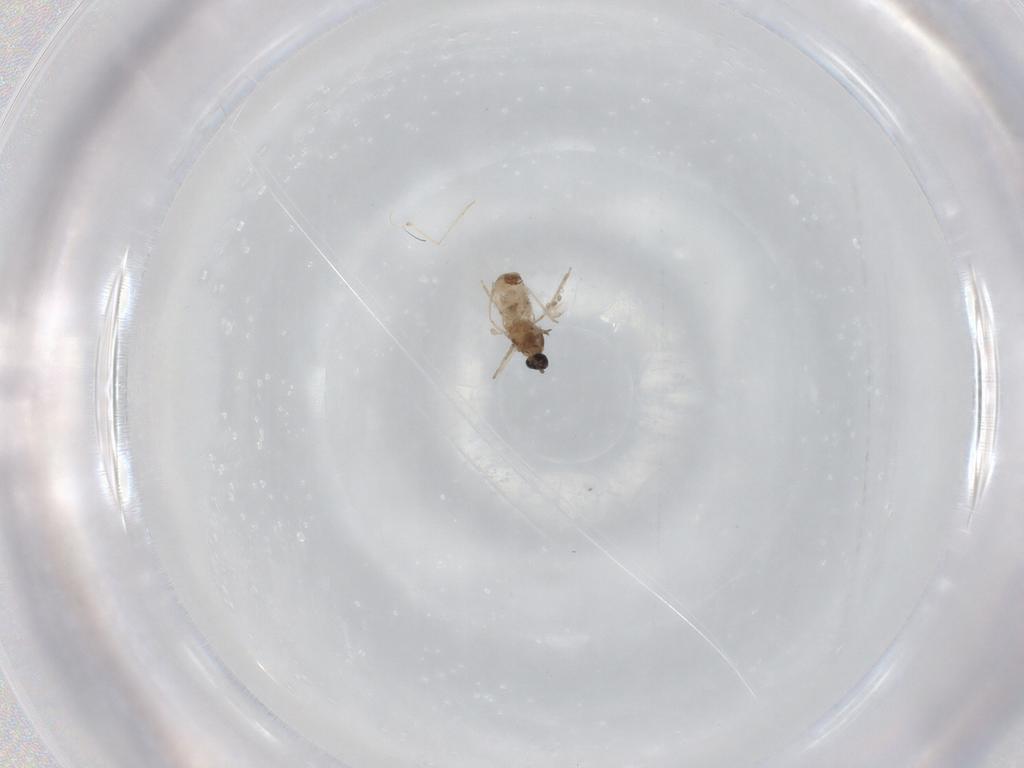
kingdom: Animalia
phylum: Arthropoda
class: Insecta
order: Diptera
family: Cecidomyiidae
